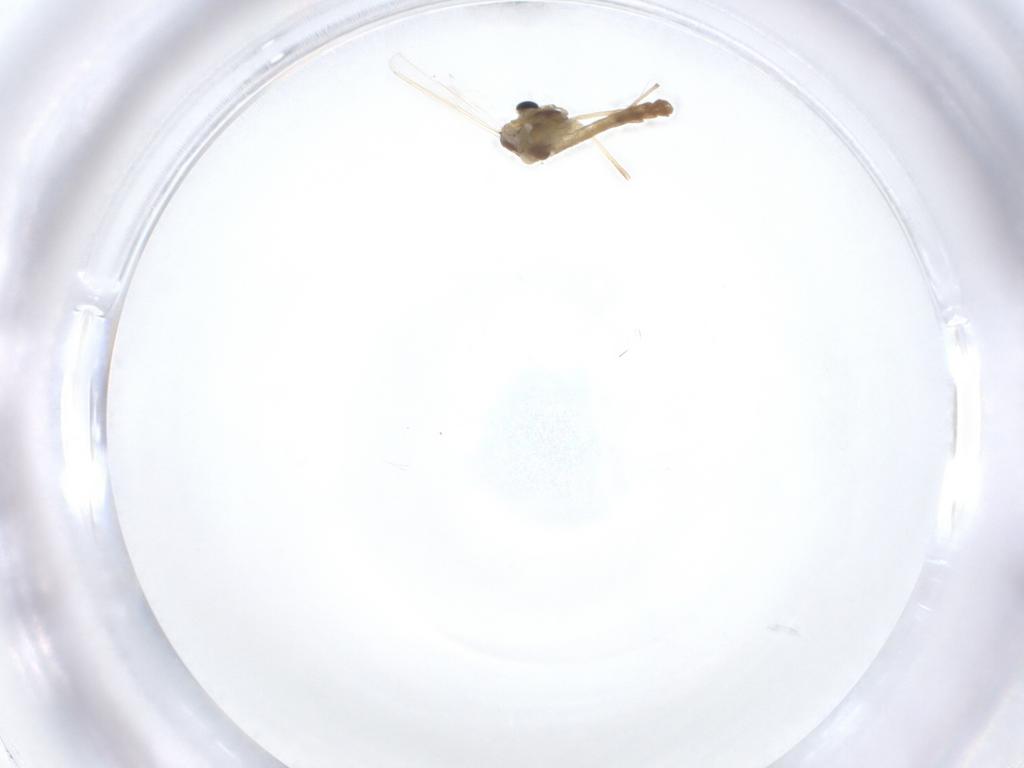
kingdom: Animalia
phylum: Arthropoda
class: Insecta
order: Diptera
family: Chironomidae
